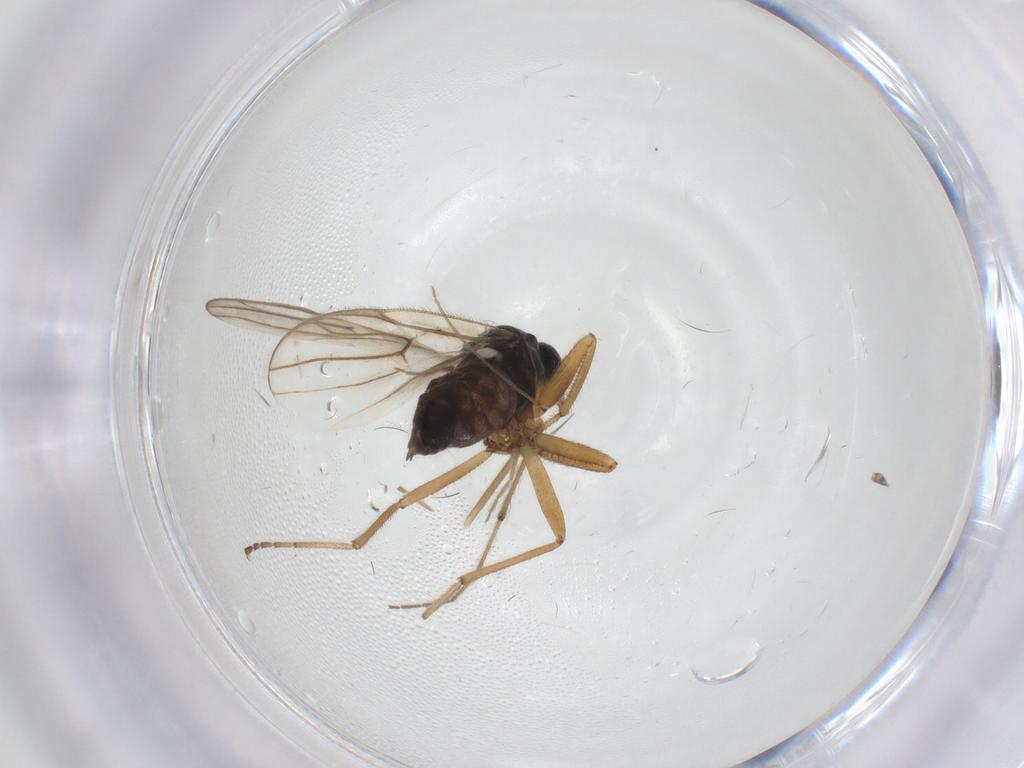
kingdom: Animalia
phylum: Arthropoda
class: Insecta
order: Diptera
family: Hybotidae
